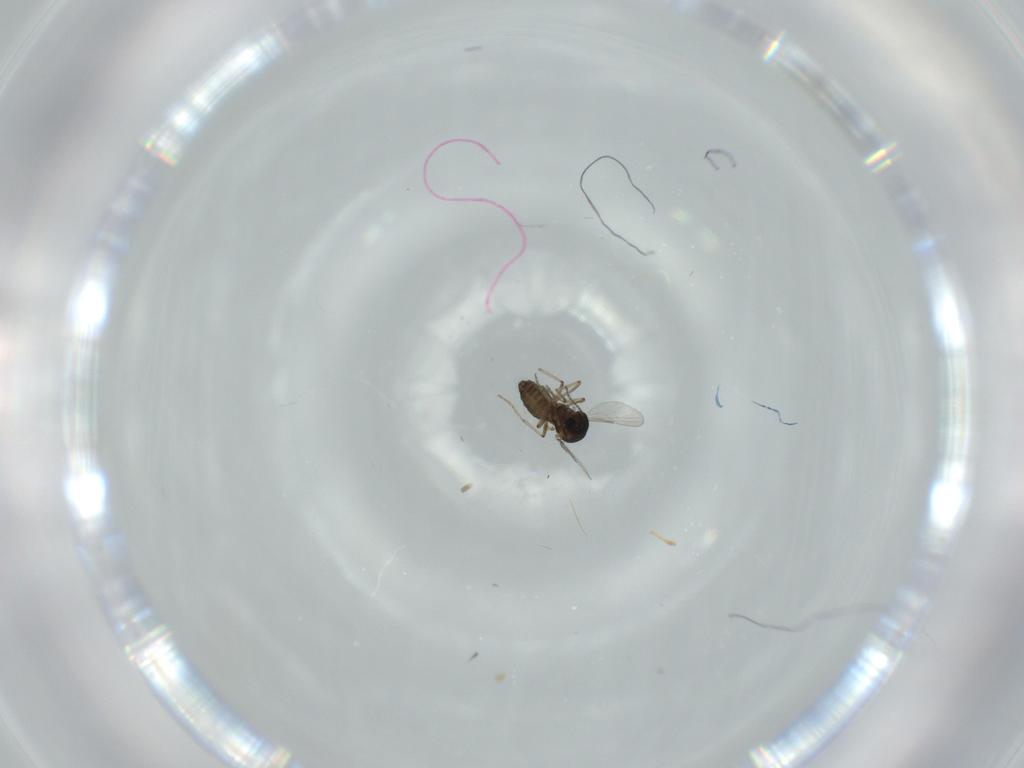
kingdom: Animalia
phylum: Arthropoda
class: Insecta
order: Diptera
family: Ceratopogonidae
